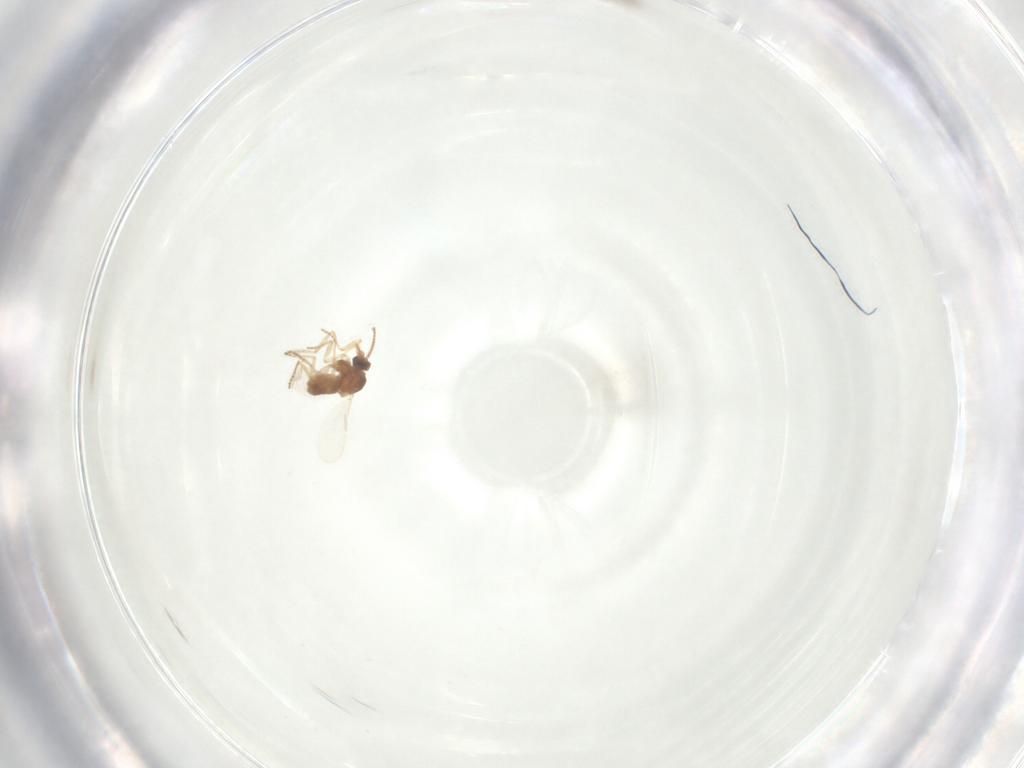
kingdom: Animalia
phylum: Arthropoda
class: Insecta
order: Diptera
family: Ceratopogonidae
